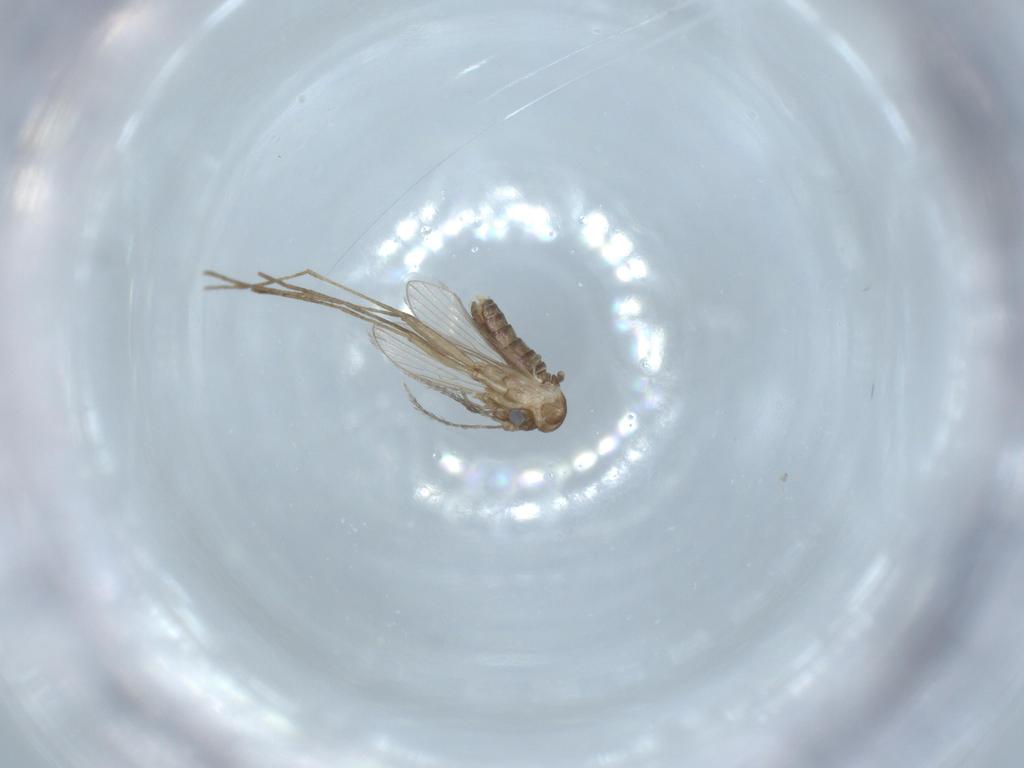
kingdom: Animalia
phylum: Arthropoda
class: Insecta
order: Diptera
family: Psychodidae
